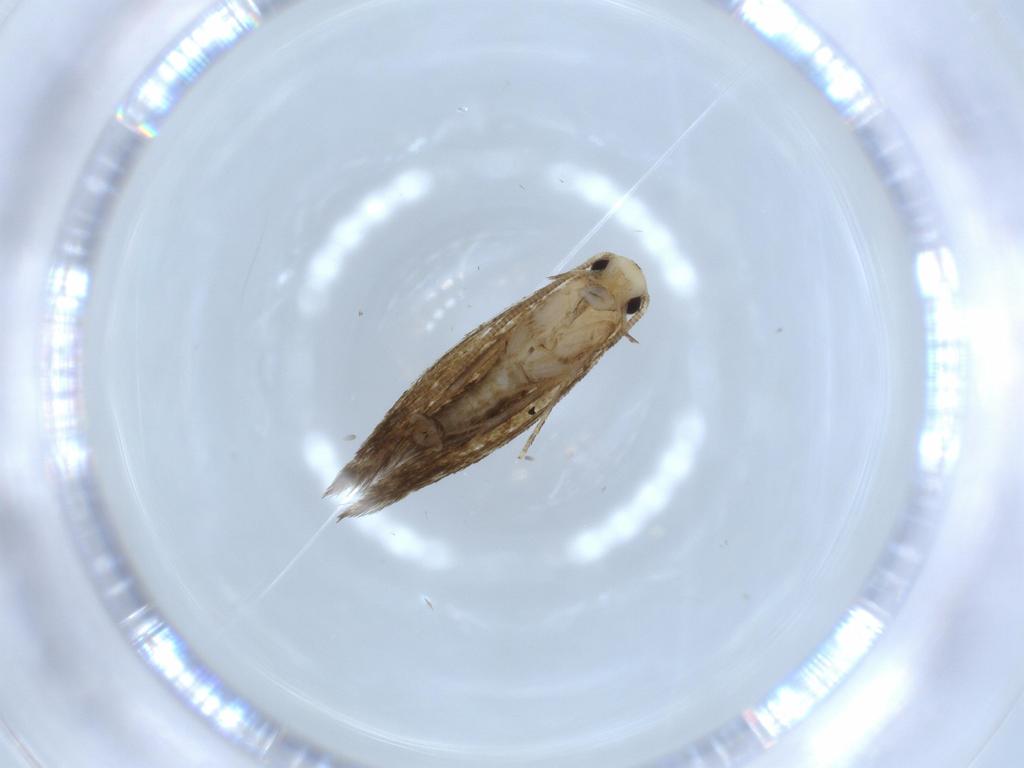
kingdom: Animalia
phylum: Arthropoda
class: Insecta
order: Lepidoptera
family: Tineidae
